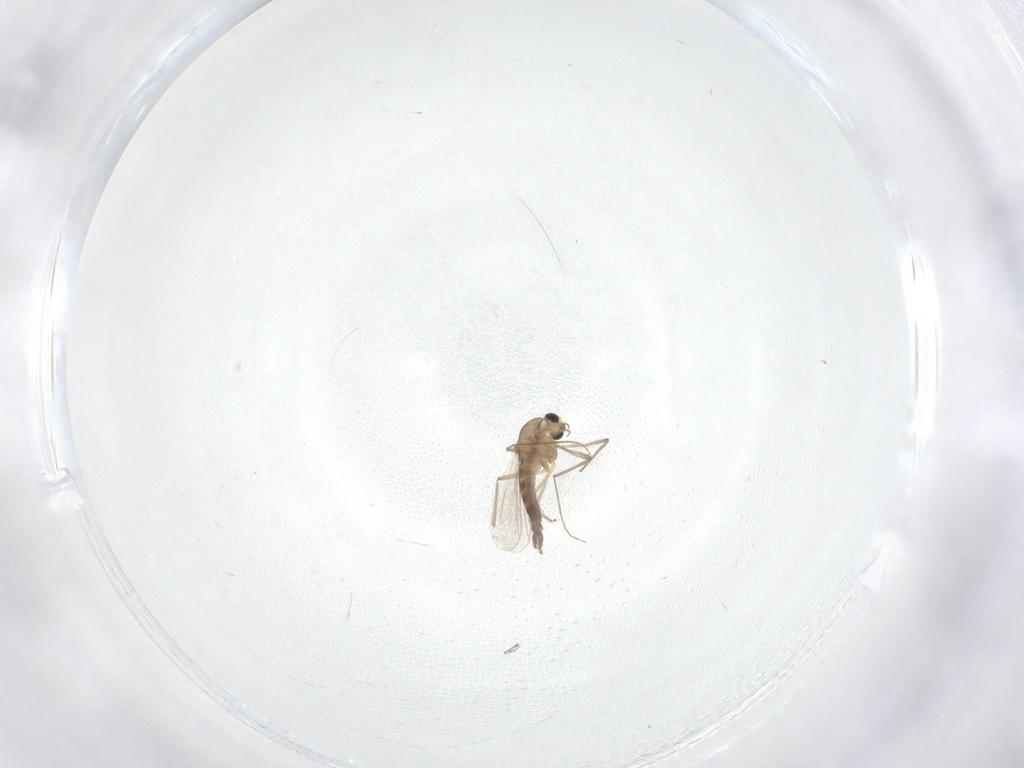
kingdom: Animalia
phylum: Arthropoda
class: Insecta
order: Diptera
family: Chironomidae
